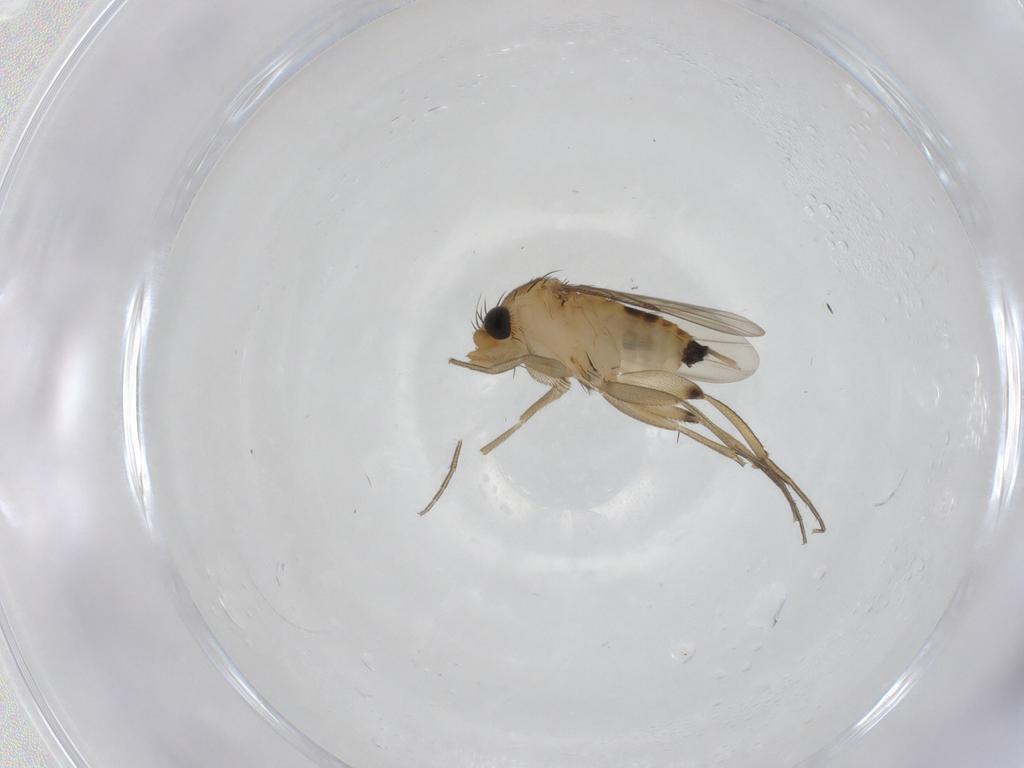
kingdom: Animalia
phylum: Arthropoda
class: Insecta
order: Diptera
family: Phoridae
